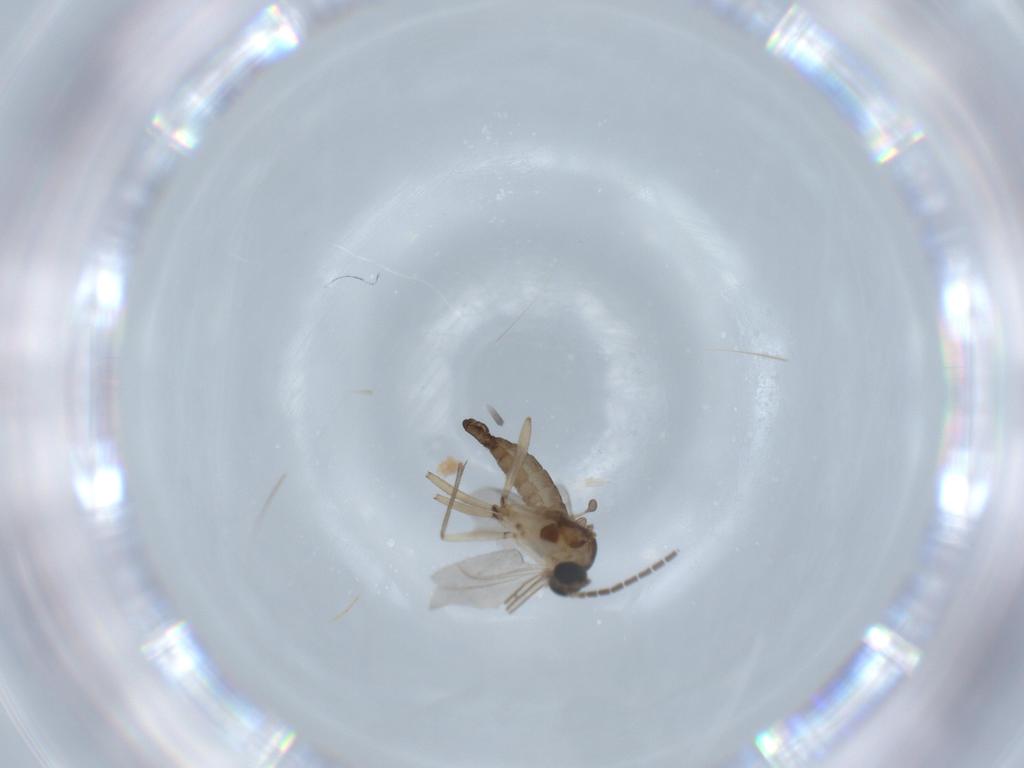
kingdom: Animalia
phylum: Arthropoda
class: Insecta
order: Diptera
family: Sciaridae
